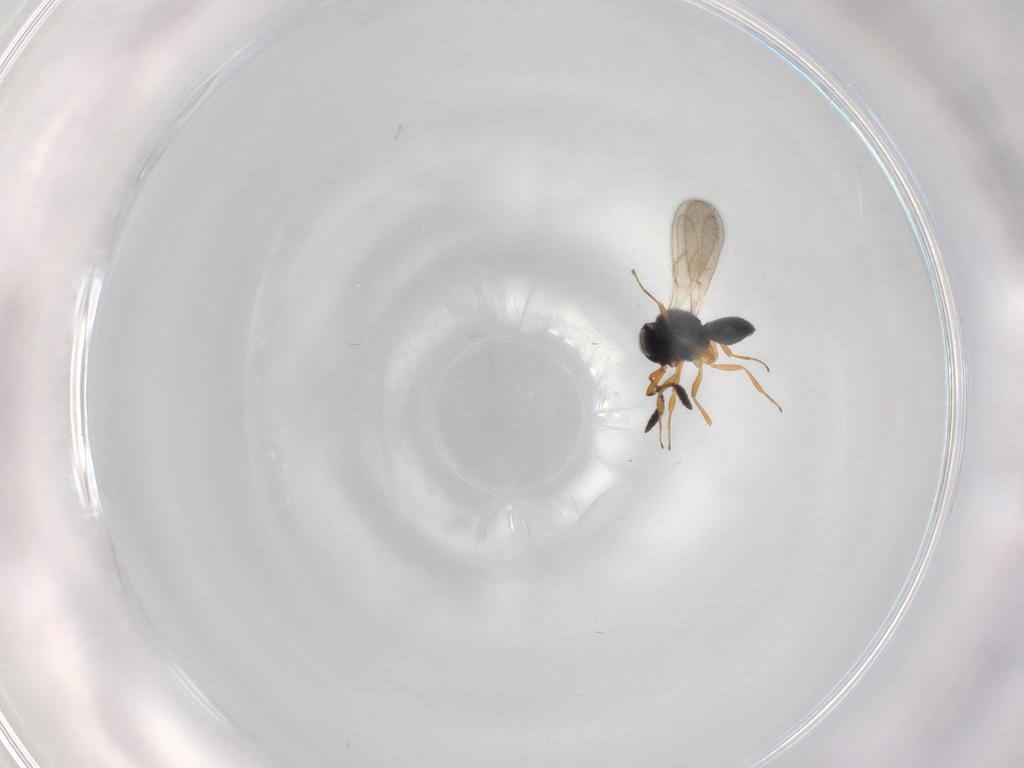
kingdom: Animalia
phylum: Arthropoda
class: Insecta
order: Hymenoptera
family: Scelionidae
